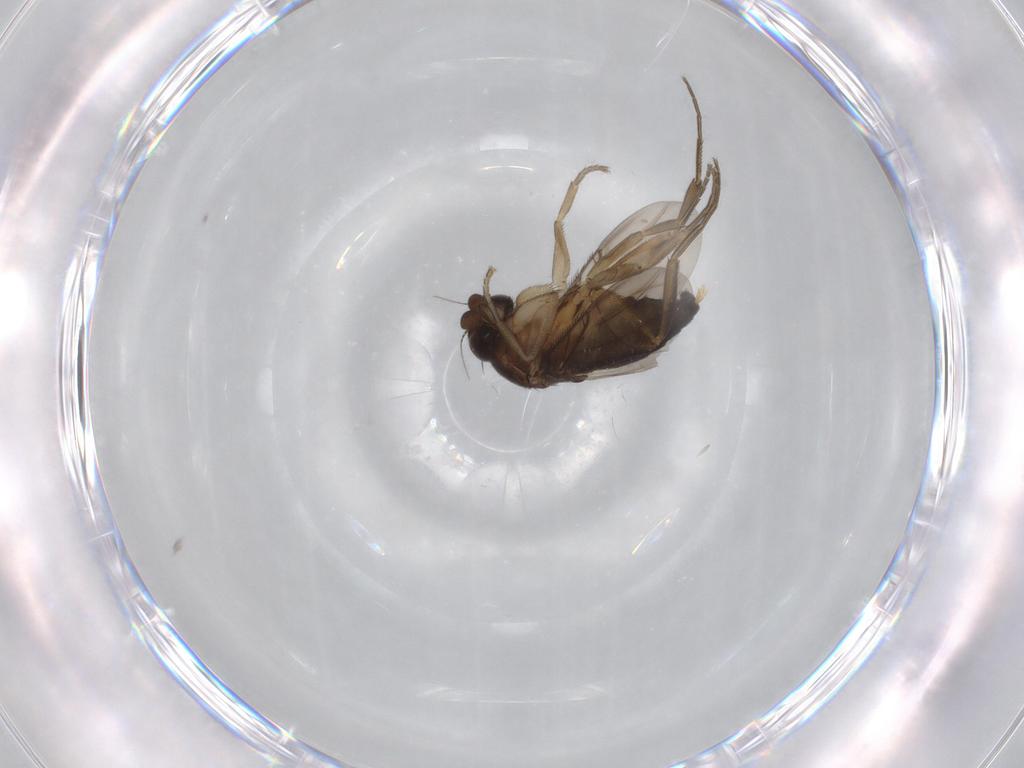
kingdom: Animalia
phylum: Arthropoda
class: Insecta
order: Diptera
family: Phoridae
